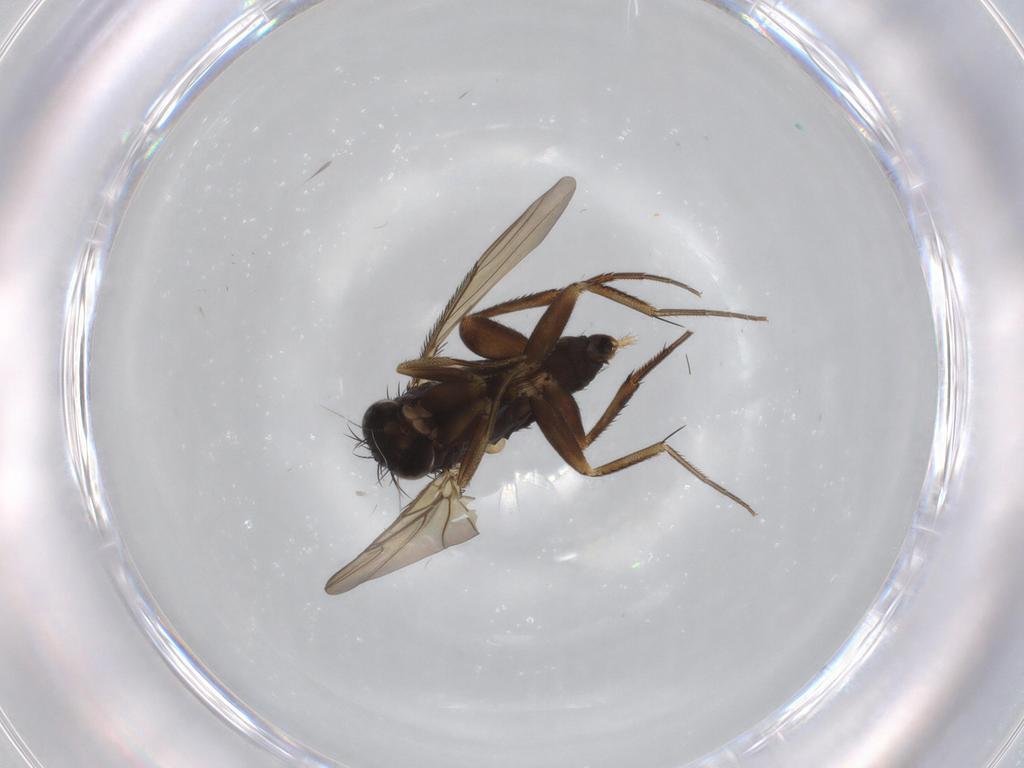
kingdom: Animalia
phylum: Arthropoda
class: Insecta
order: Diptera
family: Phoridae
